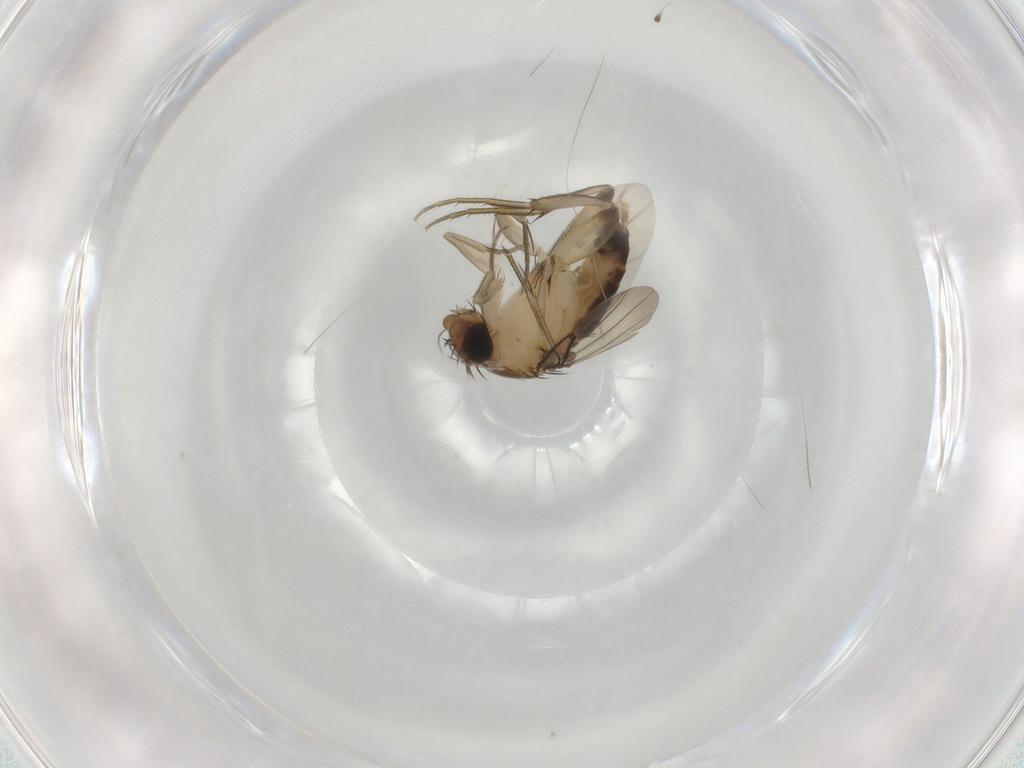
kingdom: Animalia
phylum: Arthropoda
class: Insecta
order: Diptera
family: Phoridae
